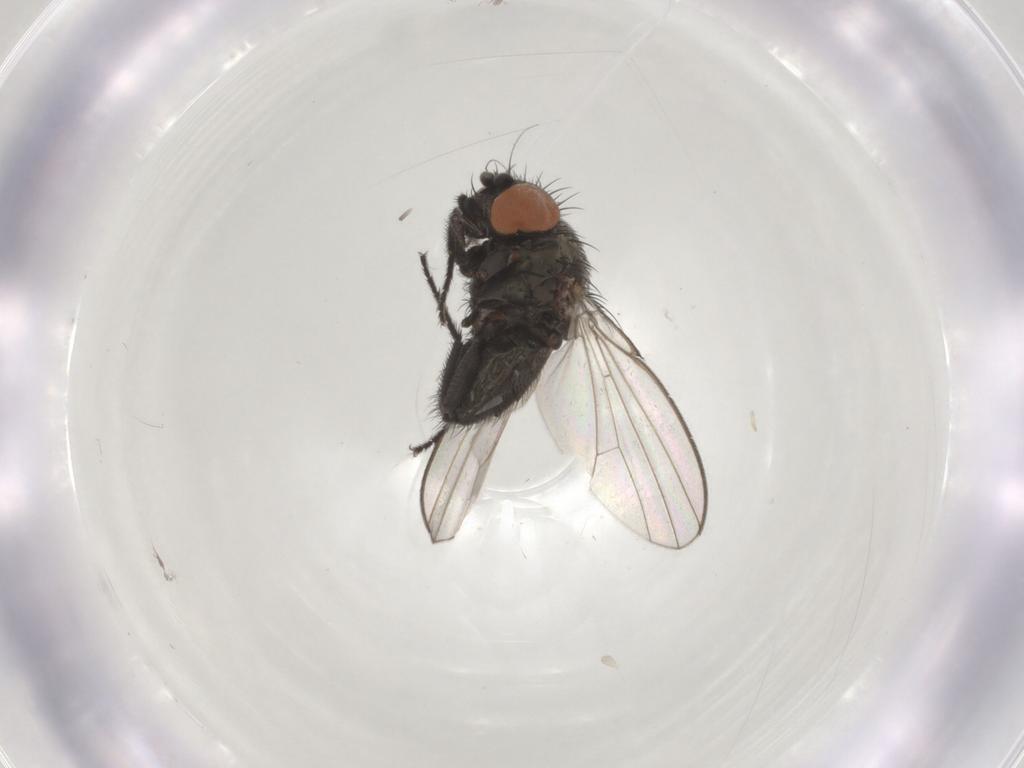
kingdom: Animalia
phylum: Arthropoda
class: Insecta
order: Diptera
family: Milichiidae
